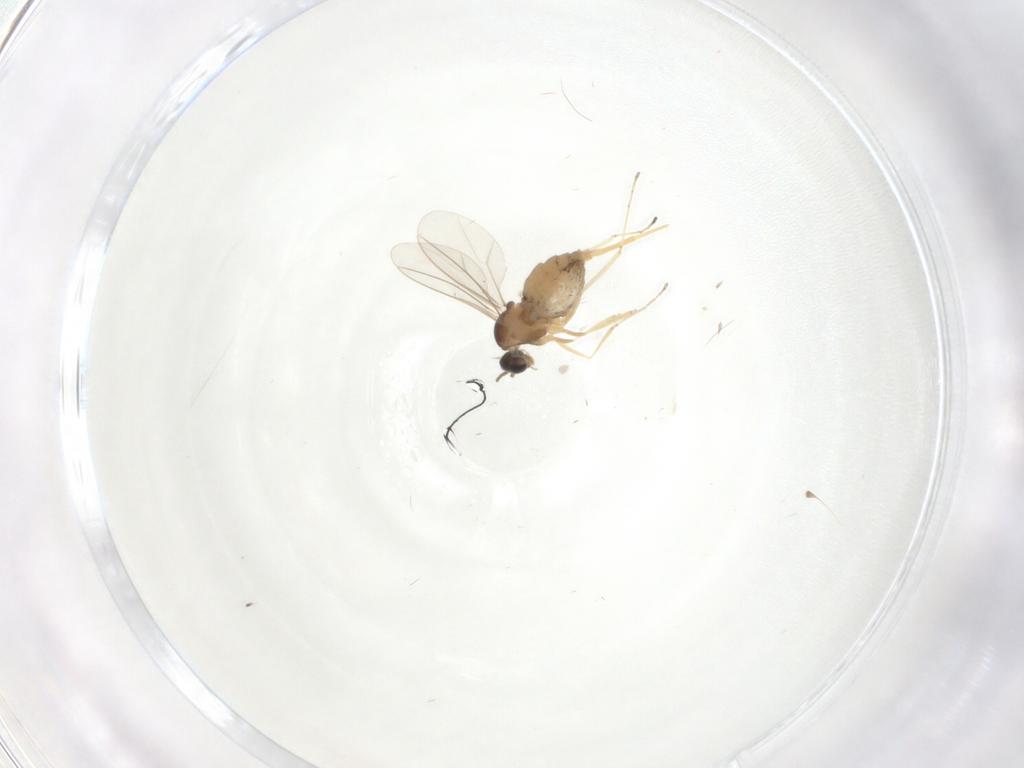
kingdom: Animalia
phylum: Arthropoda
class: Insecta
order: Diptera
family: Cecidomyiidae
